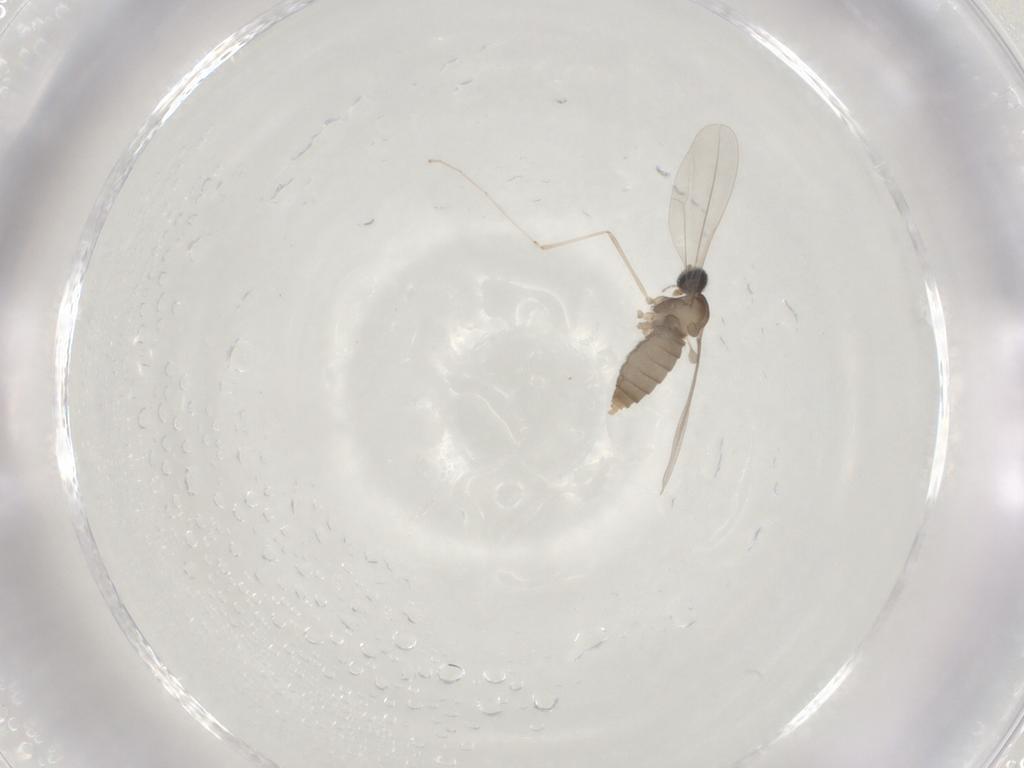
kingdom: Animalia
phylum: Arthropoda
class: Insecta
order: Diptera
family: Cecidomyiidae
